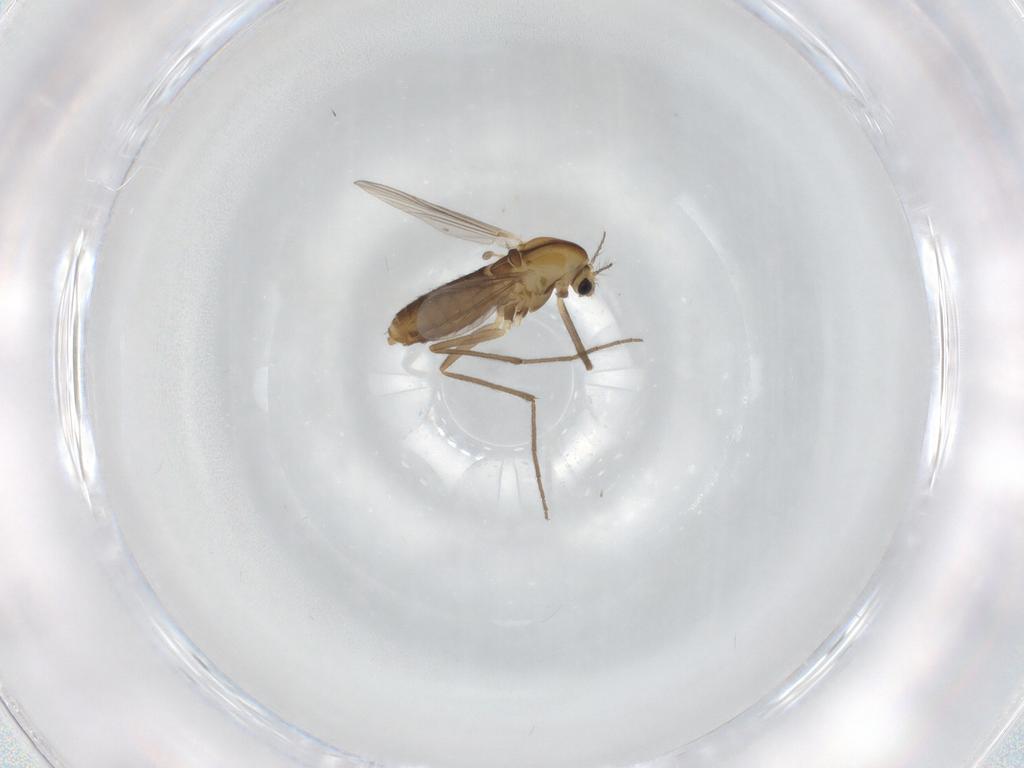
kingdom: Animalia
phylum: Arthropoda
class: Insecta
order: Diptera
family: Chironomidae
